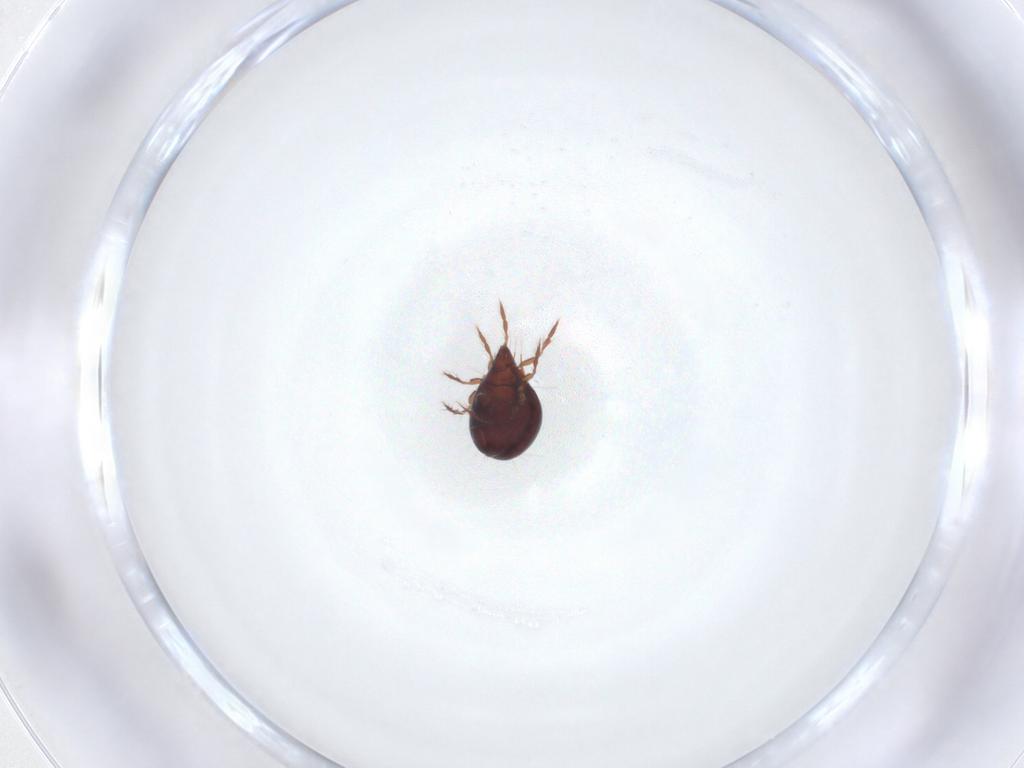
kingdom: Animalia
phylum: Arthropoda
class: Arachnida
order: Sarcoptiformes
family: Ceratoppiidae
